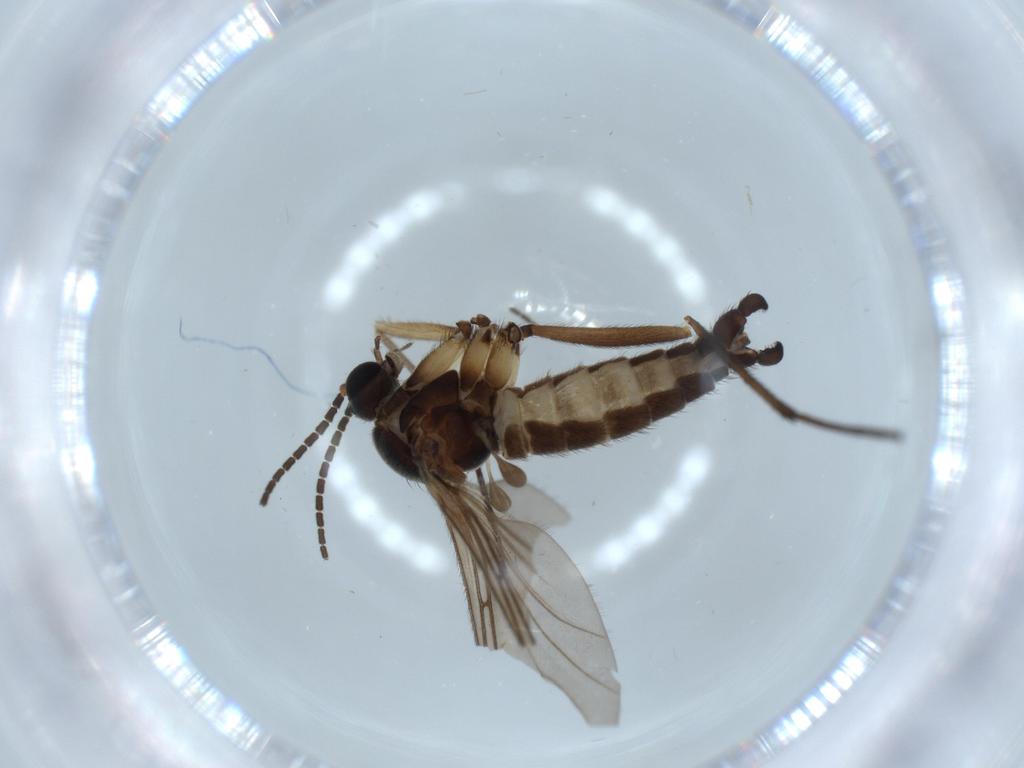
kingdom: Animalia
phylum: Arthropoda
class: Insecta
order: Diptera
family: Sciaridae
